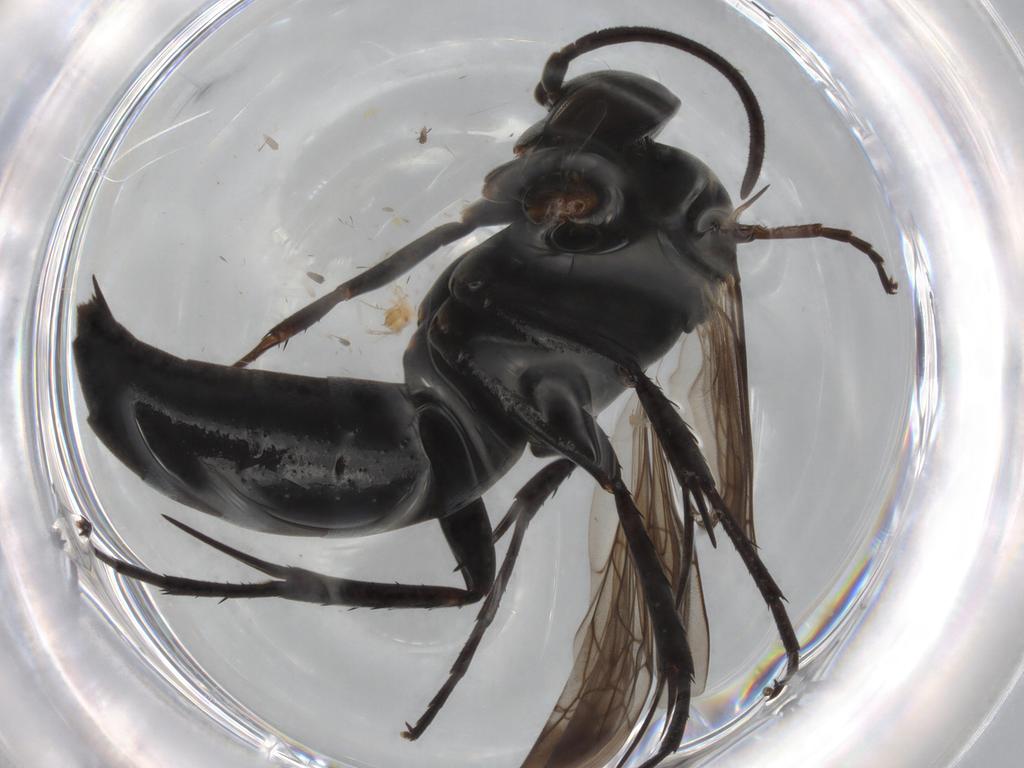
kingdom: Animalia
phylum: Arthropoda
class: Insecta
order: Hymenoptera
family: Trichogrammatidae
